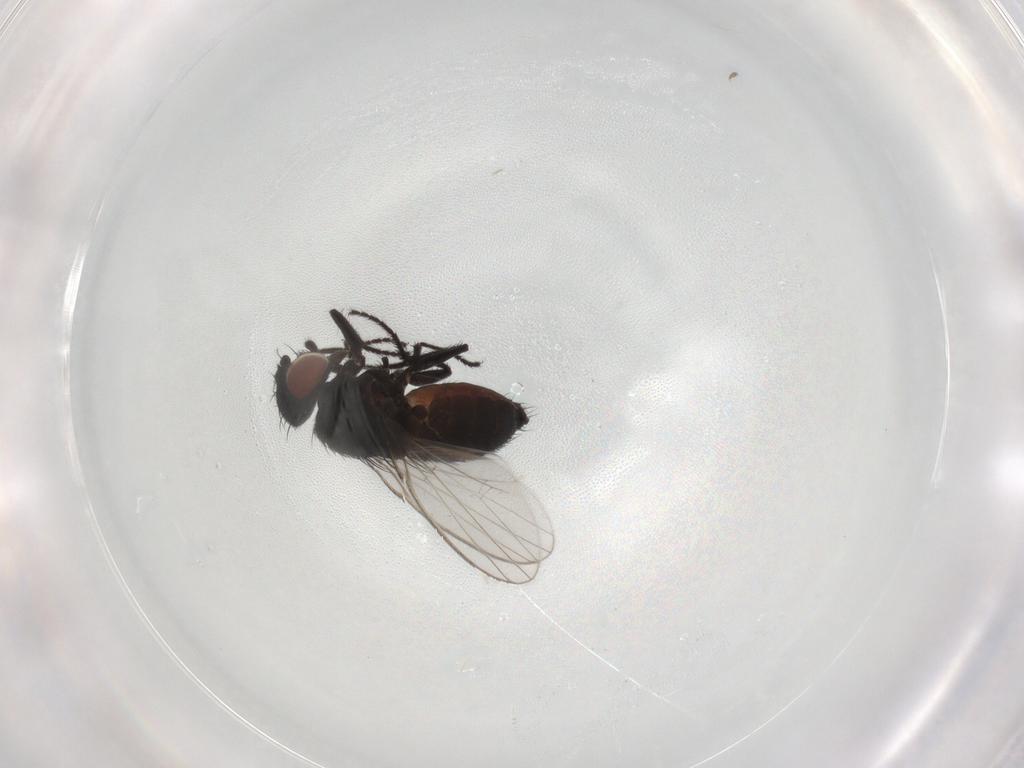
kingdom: Animalia
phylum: Arthropoda
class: Insecta
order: Diptera
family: Milichiidae
